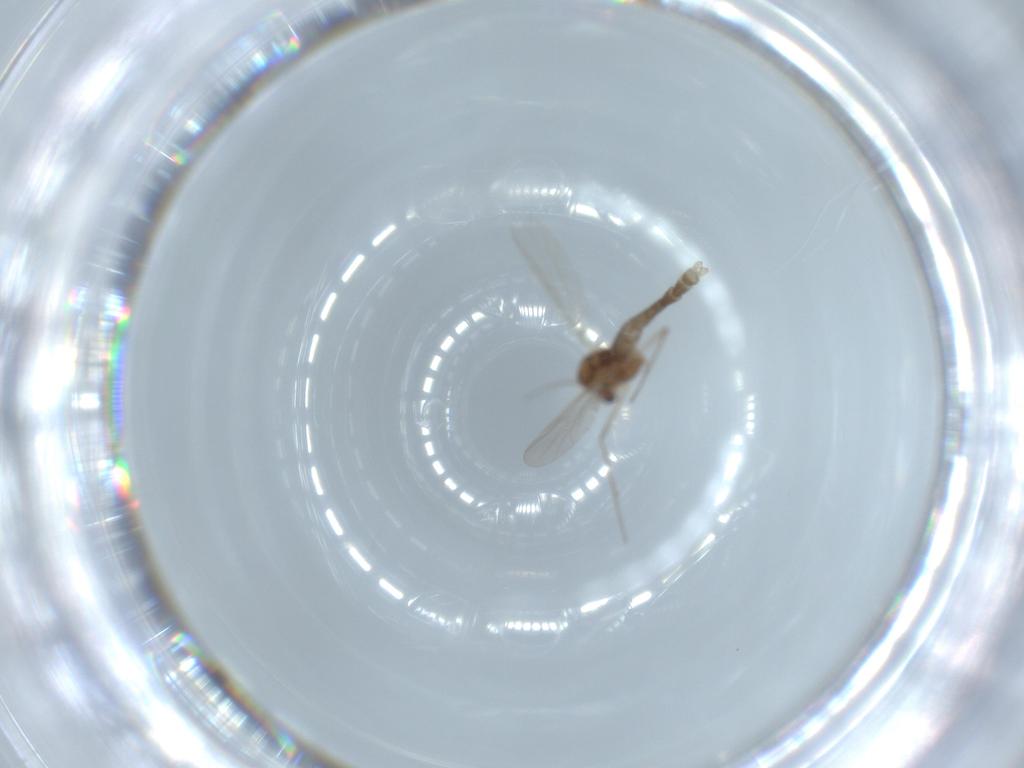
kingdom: Animalia
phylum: Arthropoda
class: Insecta
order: Diptera
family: Chironomidae
